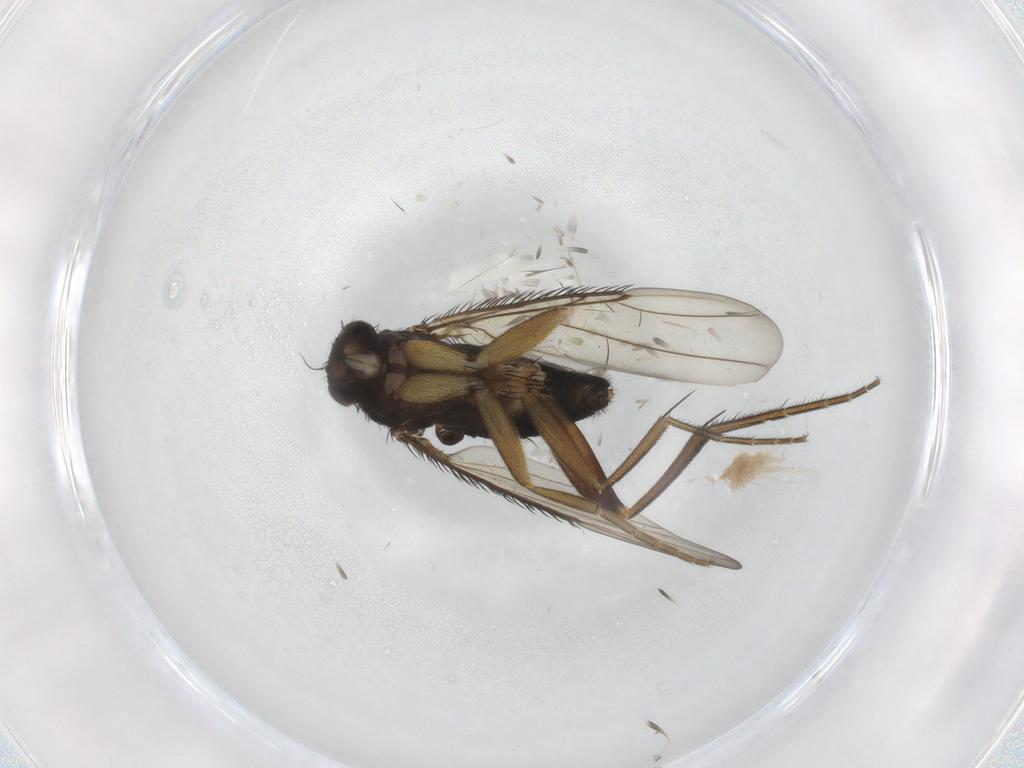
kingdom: Animalia
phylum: Arthropoda
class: Insecta
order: Diptera
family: Phoridae
